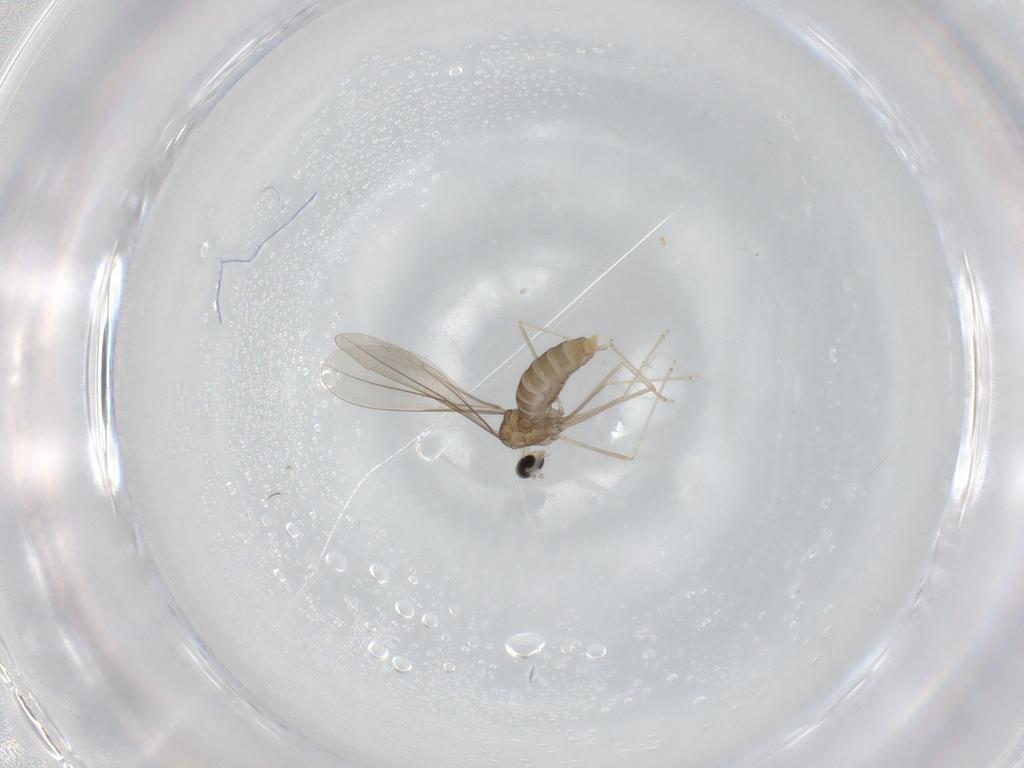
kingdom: Animalia
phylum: Arthropoda
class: Insecta
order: Diptera
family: Cecidomyiidae
